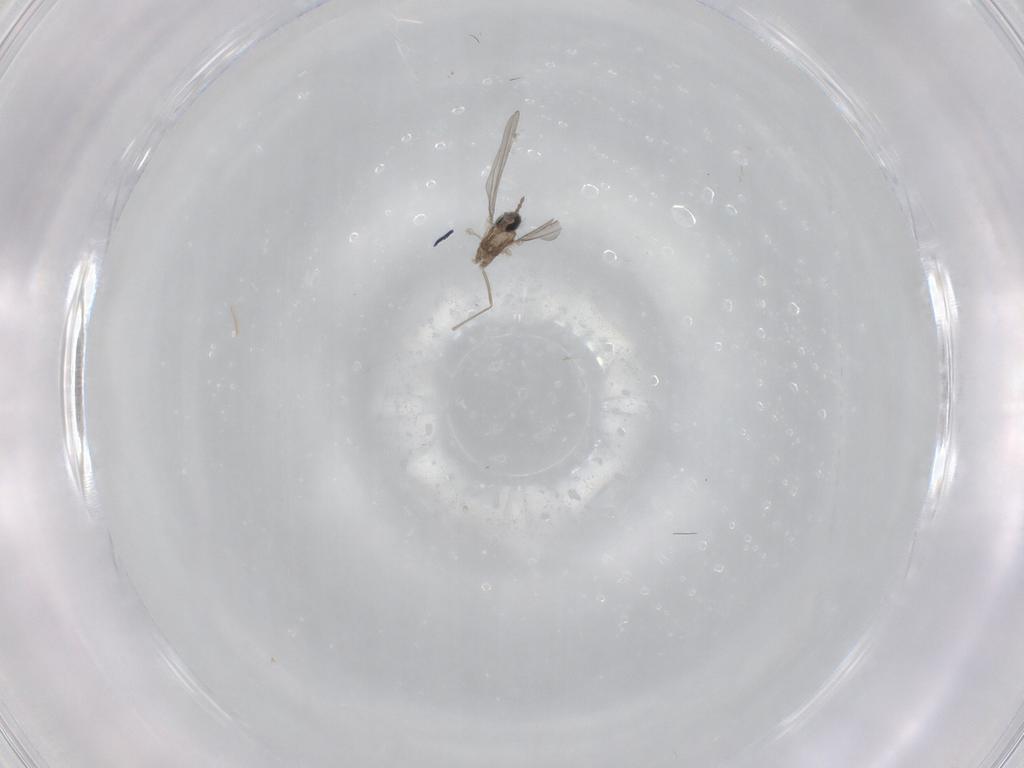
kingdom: Animalia
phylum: Arthropoda
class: Insecta
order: Diptera
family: Cecidomyiidae
